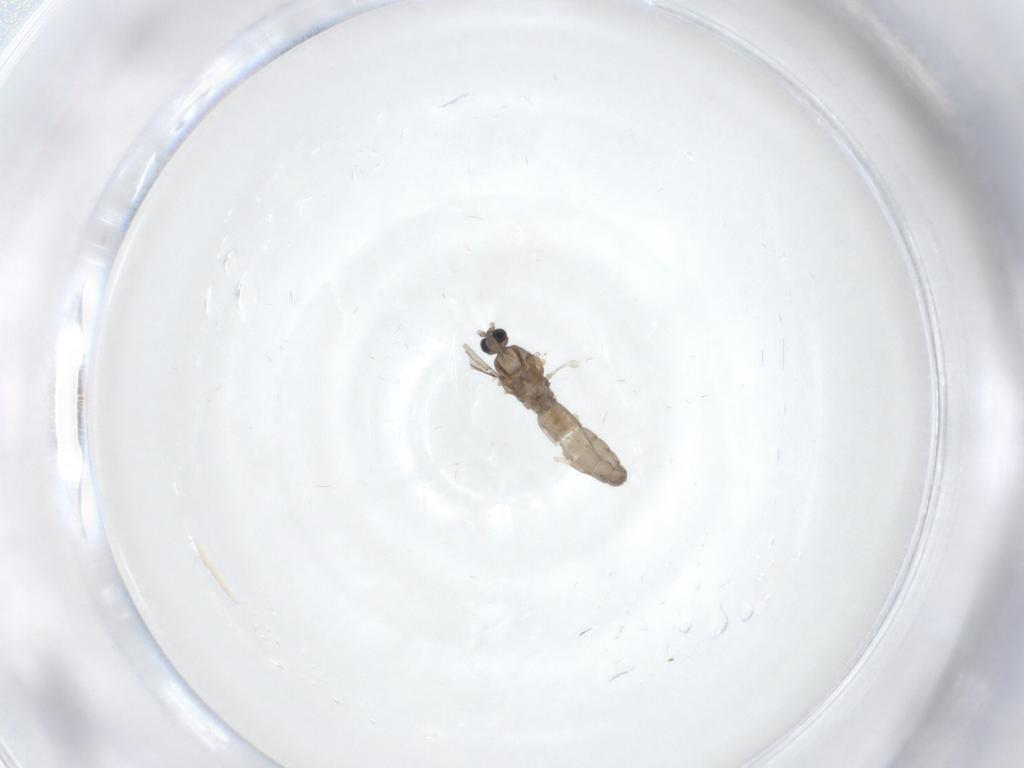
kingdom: Animalia
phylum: Arthropoda
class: Insecta
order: Diptera
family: Ceratopogonidae
